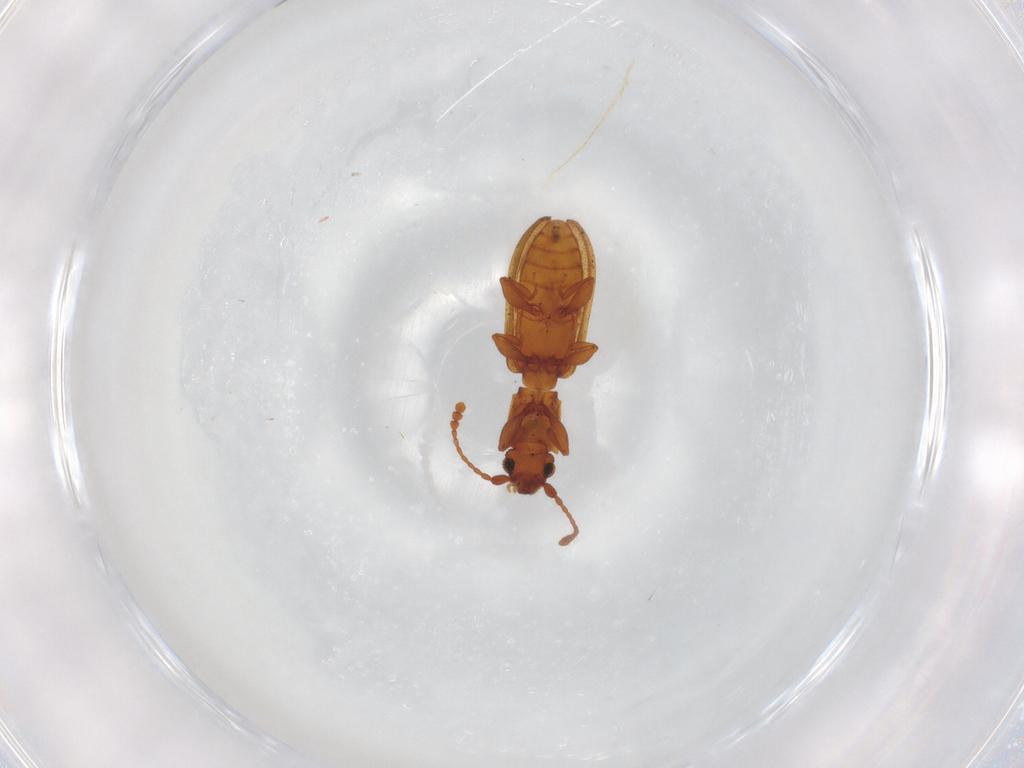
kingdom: Animalia
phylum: Arthropoda
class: Insecta
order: Coleoptera
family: Carabidae
